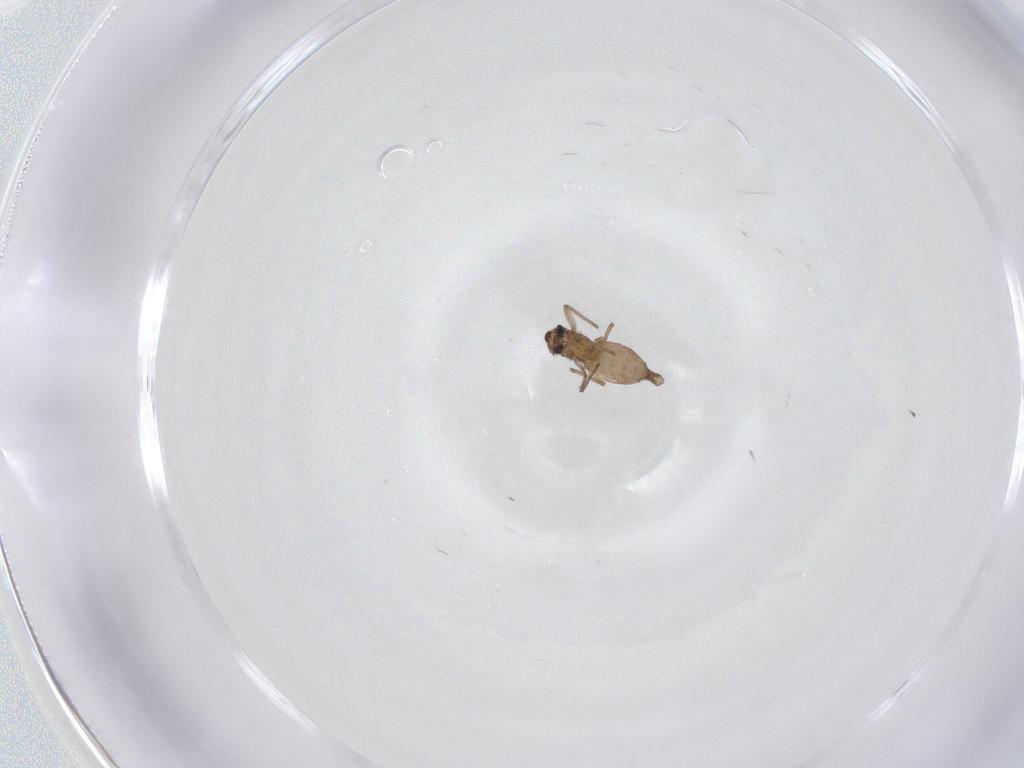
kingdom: Animalia
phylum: Arthropoda
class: Insecta
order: Diptera
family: Chironomidae
